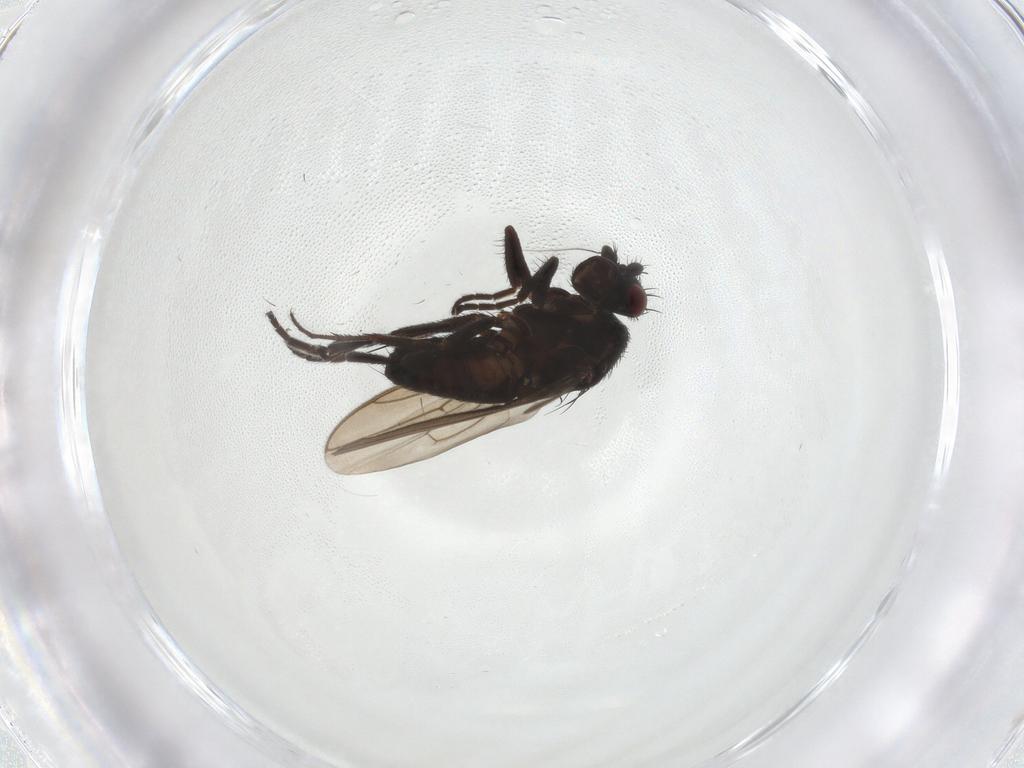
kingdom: Animalia
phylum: Arthropoda
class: Insecta
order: Diptera
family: Sphaeroceridae
